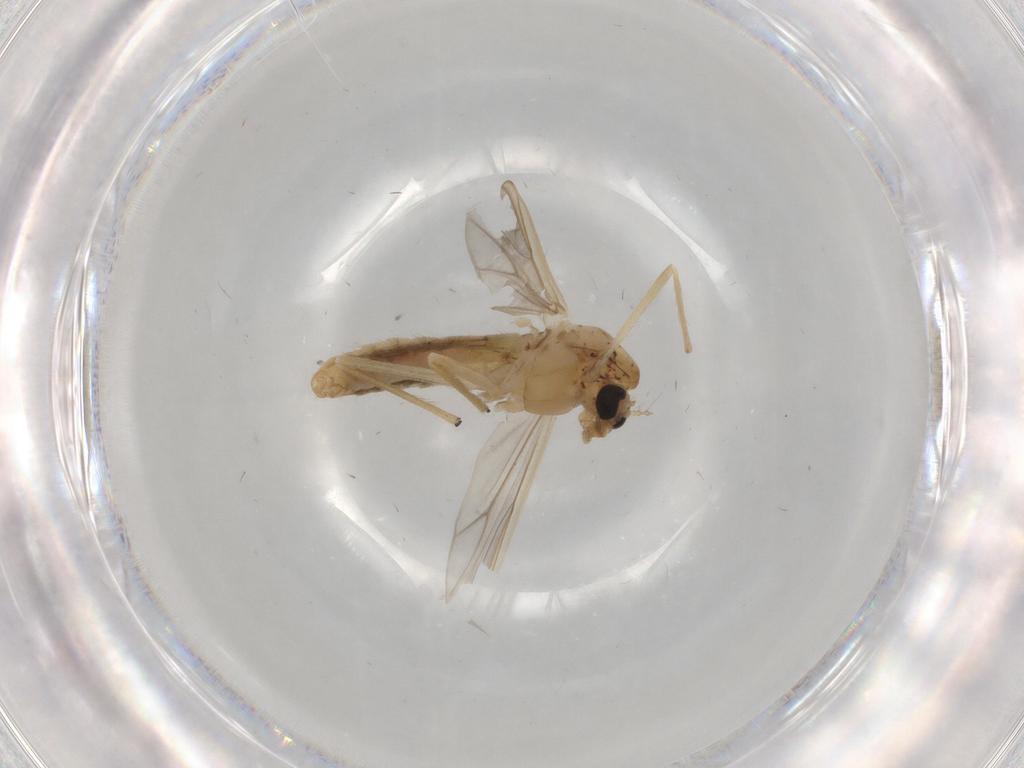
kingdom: Animalia
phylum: Arthropoda
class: Insecta
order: Diptera
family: Chironomidae
